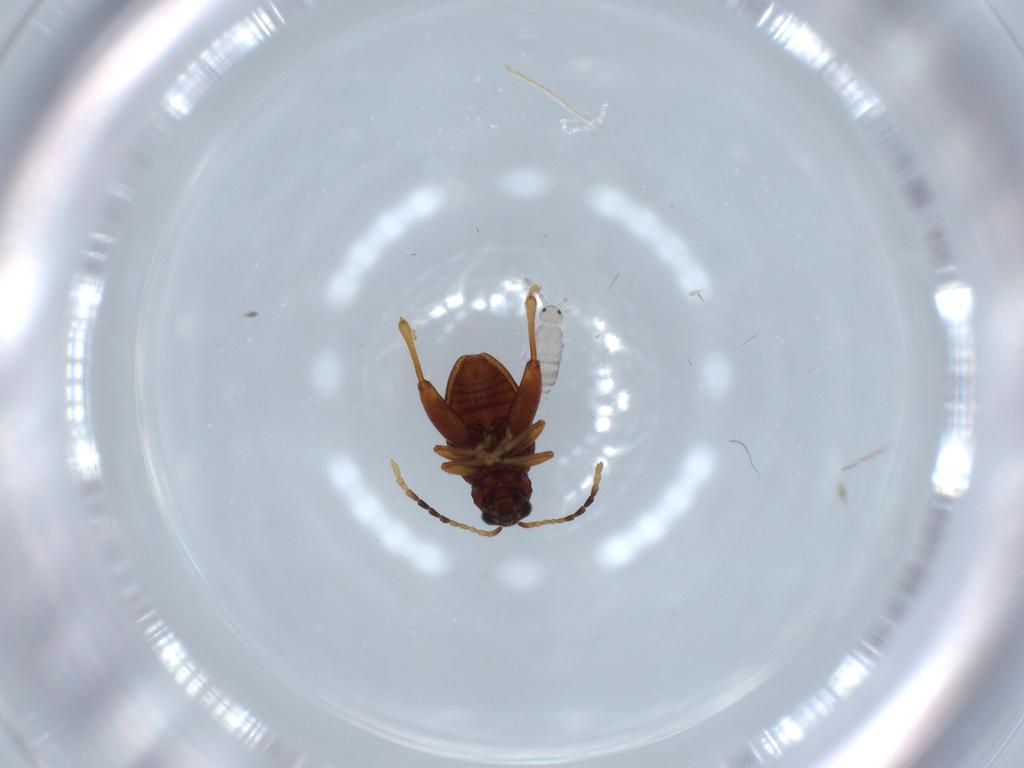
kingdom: Animalia
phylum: Arthropoda
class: Insecta
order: Coleoptera
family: Chrysomelidae
